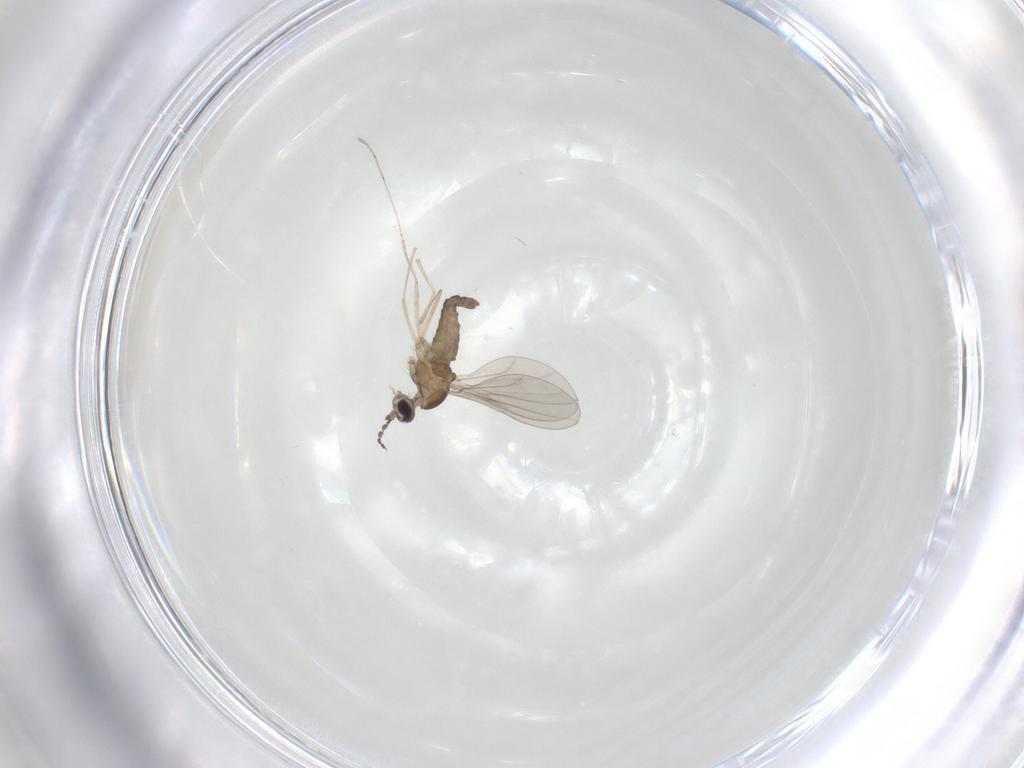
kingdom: Animalia
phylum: Arthropoda
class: Insecta
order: Diptera
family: Cecidomyiidae
